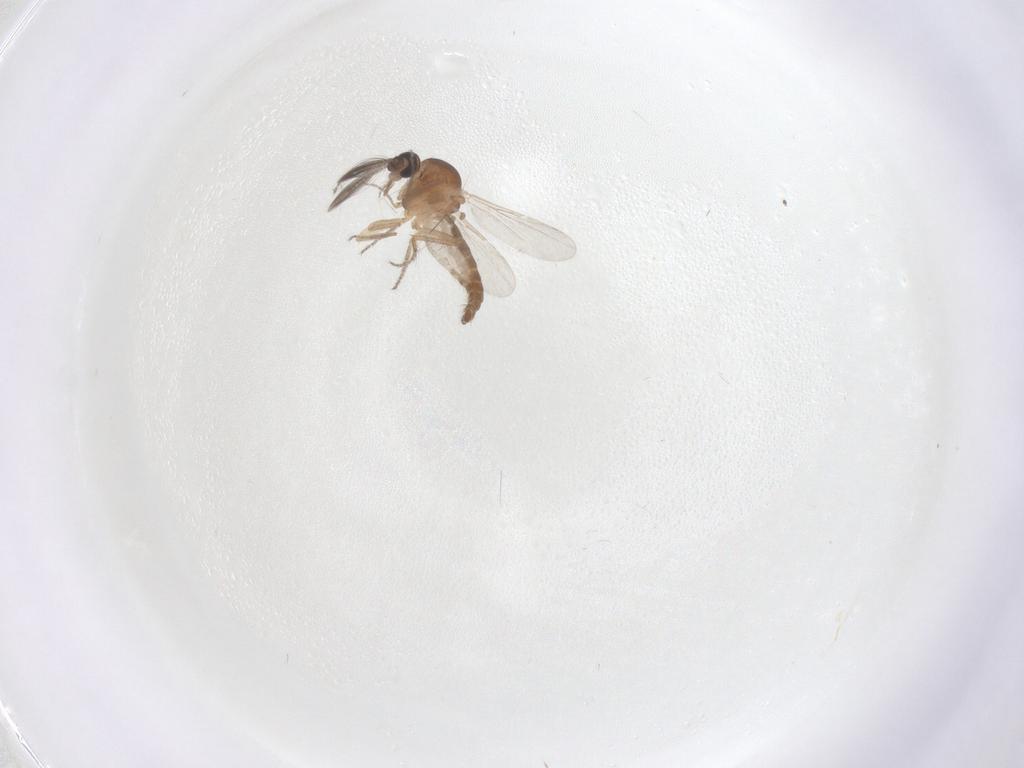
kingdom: Animalia
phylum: Arthropoda
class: Insecta
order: Diptera
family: Ceratopogonidae
